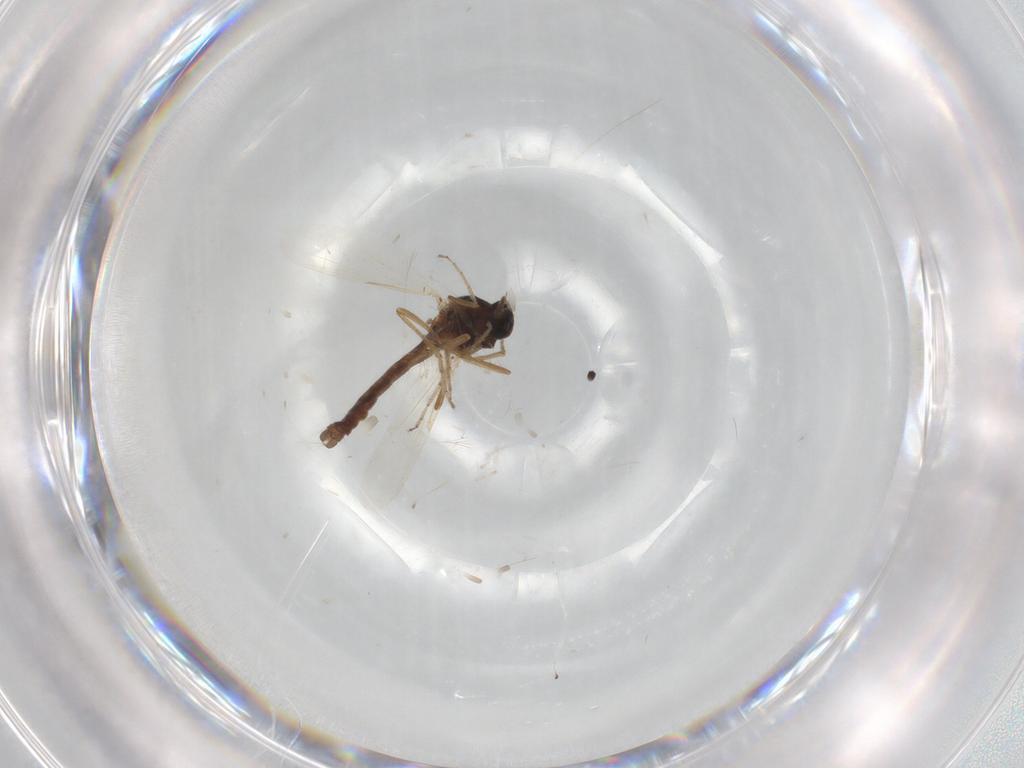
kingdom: Animalia
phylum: Arthropoda
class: Insecta
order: Diptera
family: Ceratopogonidae
